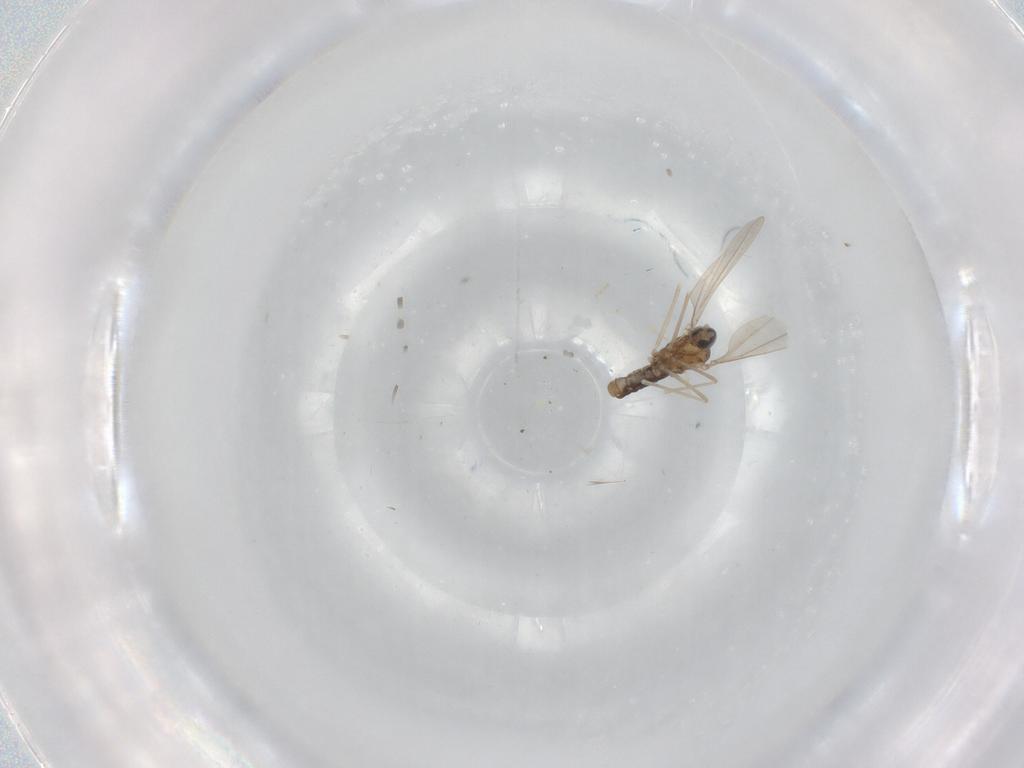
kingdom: Animalia
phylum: Arthropoda
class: Insecta
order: Diptera
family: Cecidomyiidae
